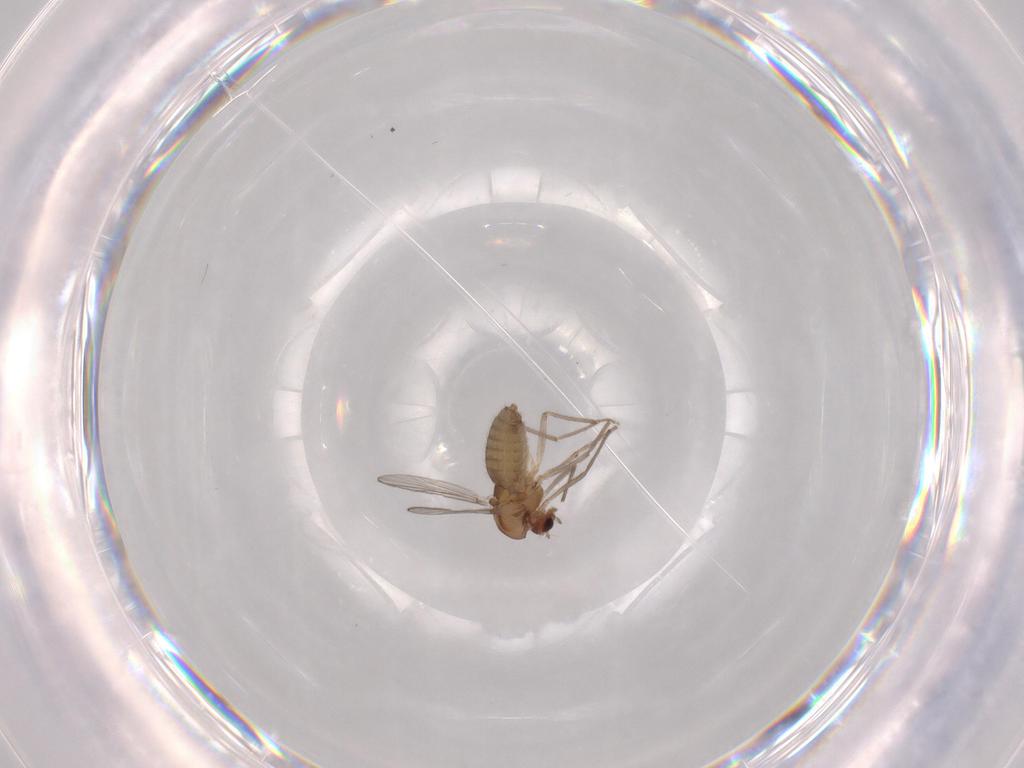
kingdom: Animalia
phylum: Arthropoda
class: Insecta
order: Diptera
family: Chironomidae
